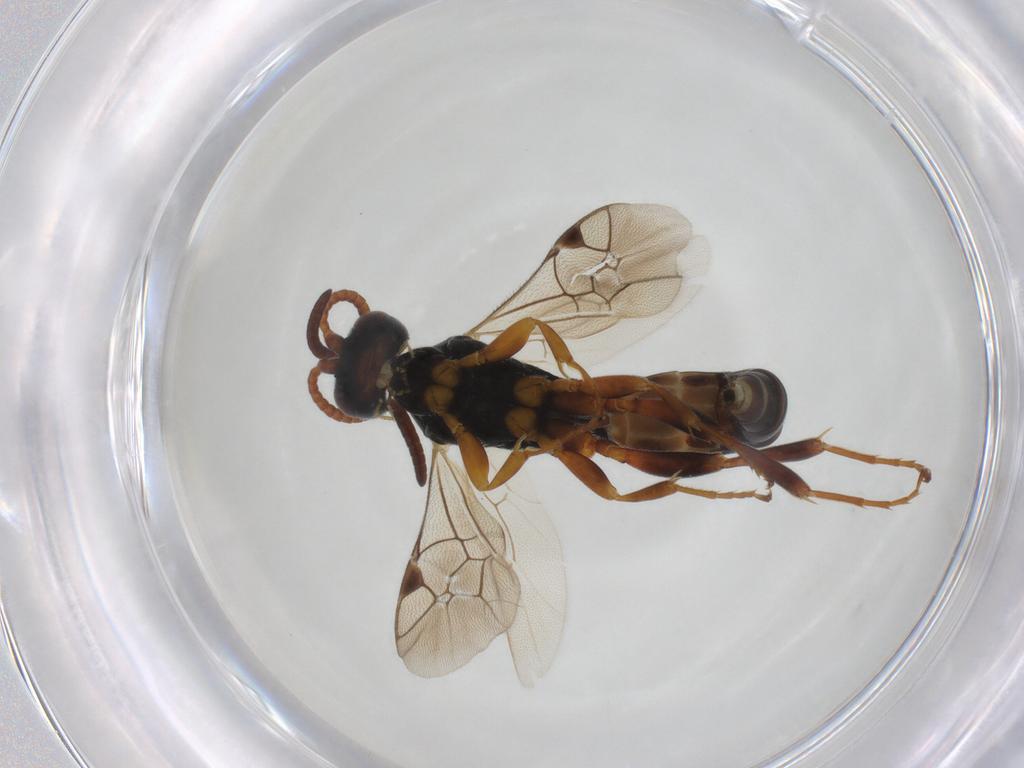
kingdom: Animalia
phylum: Arthropoda
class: Insecta
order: Hymenoptera
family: Ichneumonidae
